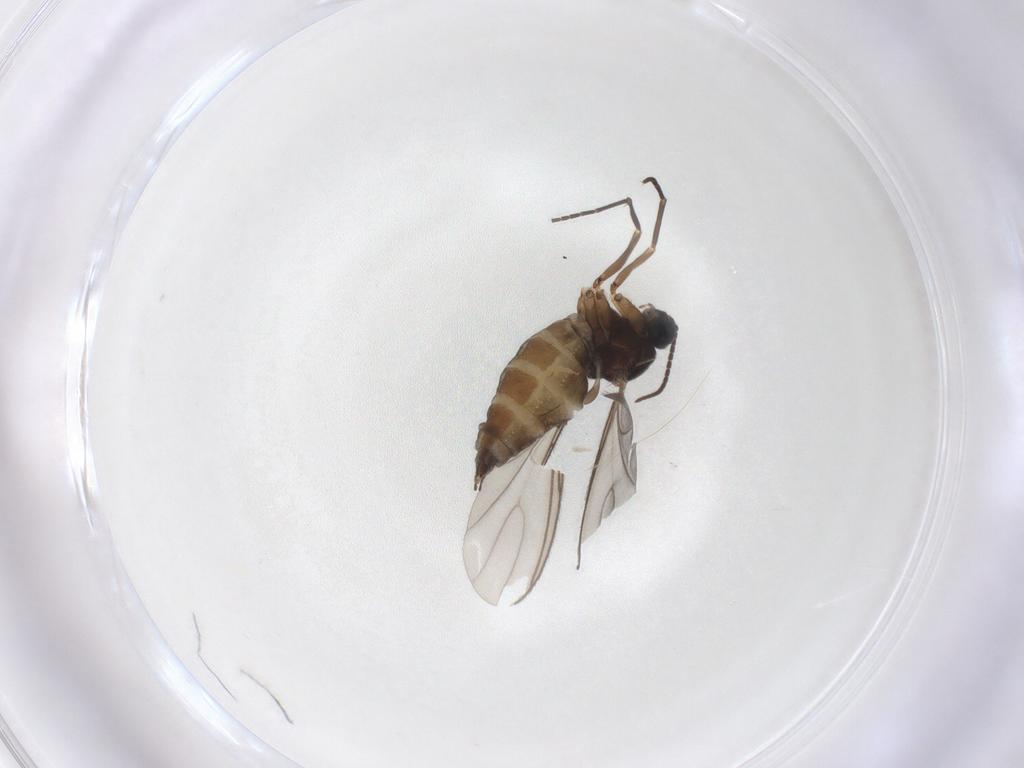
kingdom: Animalia
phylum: Arthropoda
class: Insecta
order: Diptera
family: Sciaridae
